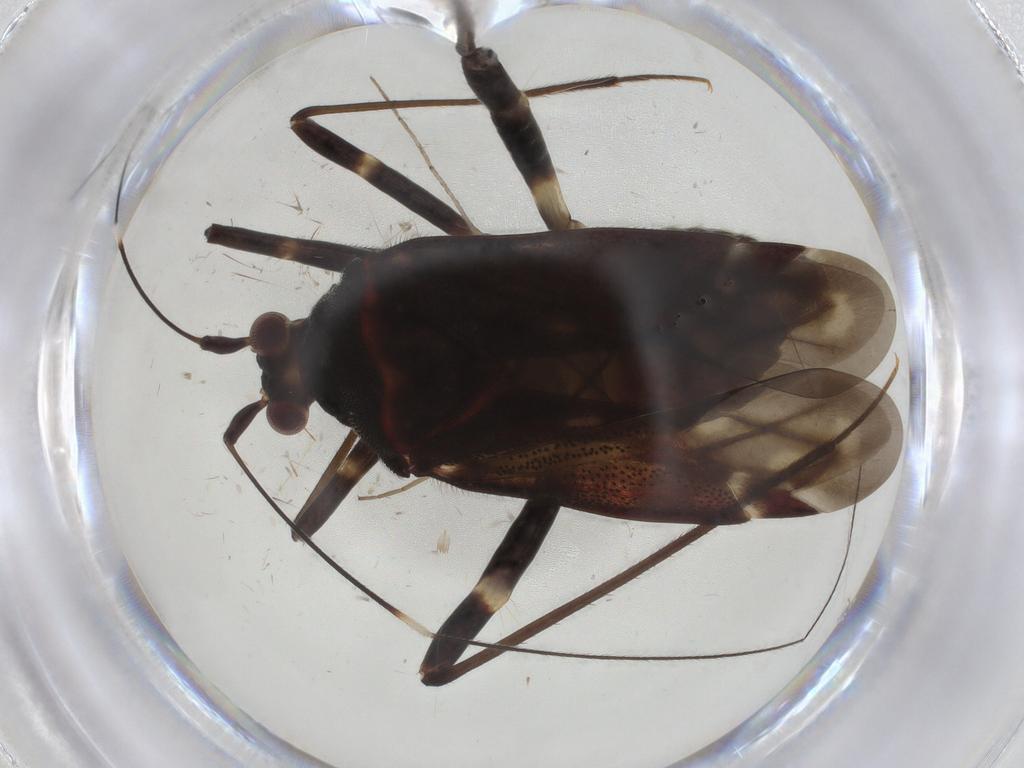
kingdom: Animalia
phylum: Arthropoda
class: Insecta
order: Hemiptera
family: Miridae
